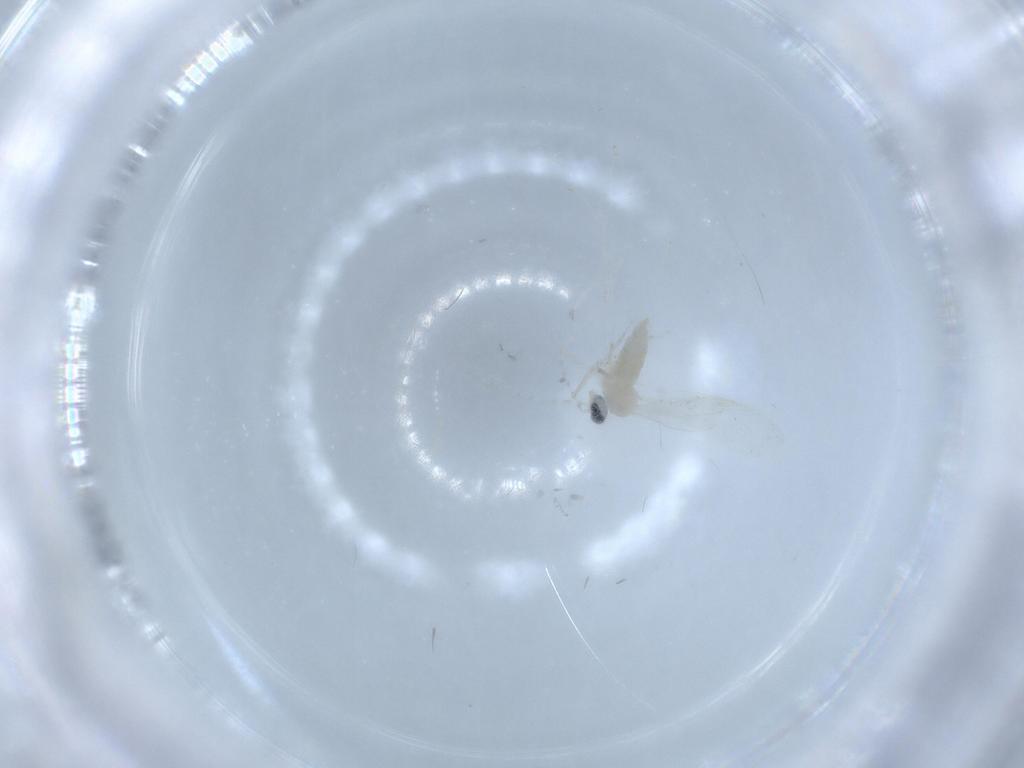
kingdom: Animalia
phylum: Arthropoda
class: Insecta
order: Diptera
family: Cecidomyiidae
